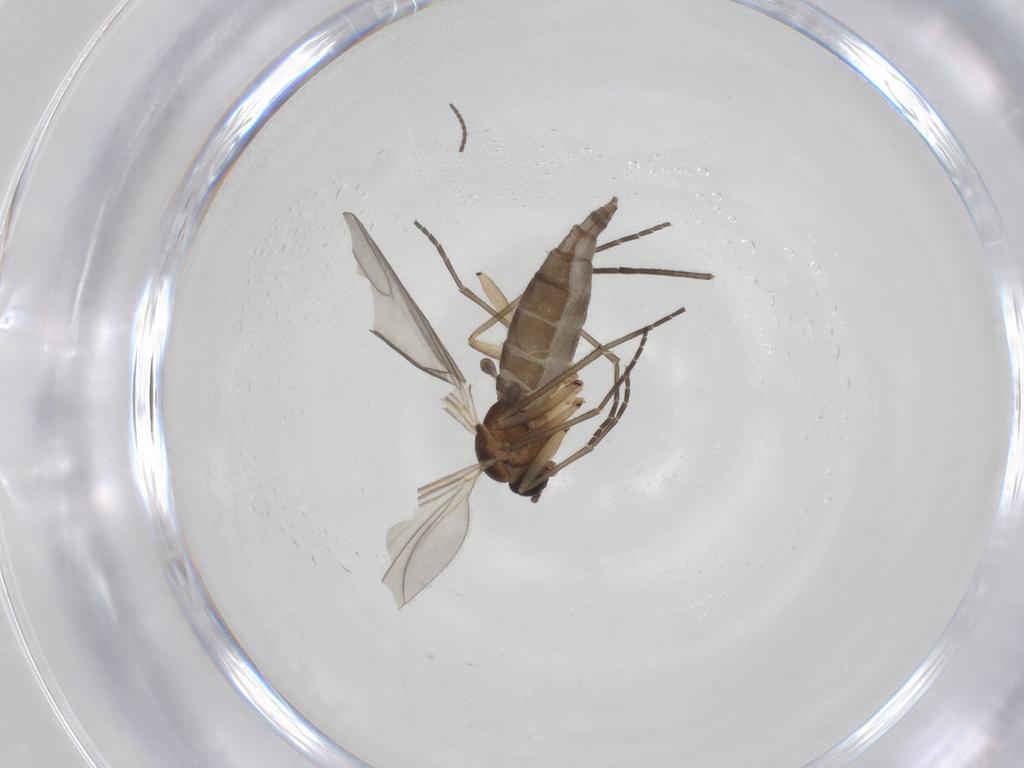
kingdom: Animalia
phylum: Arthropoda
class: Insecta
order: Diptera
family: Sciaridae
